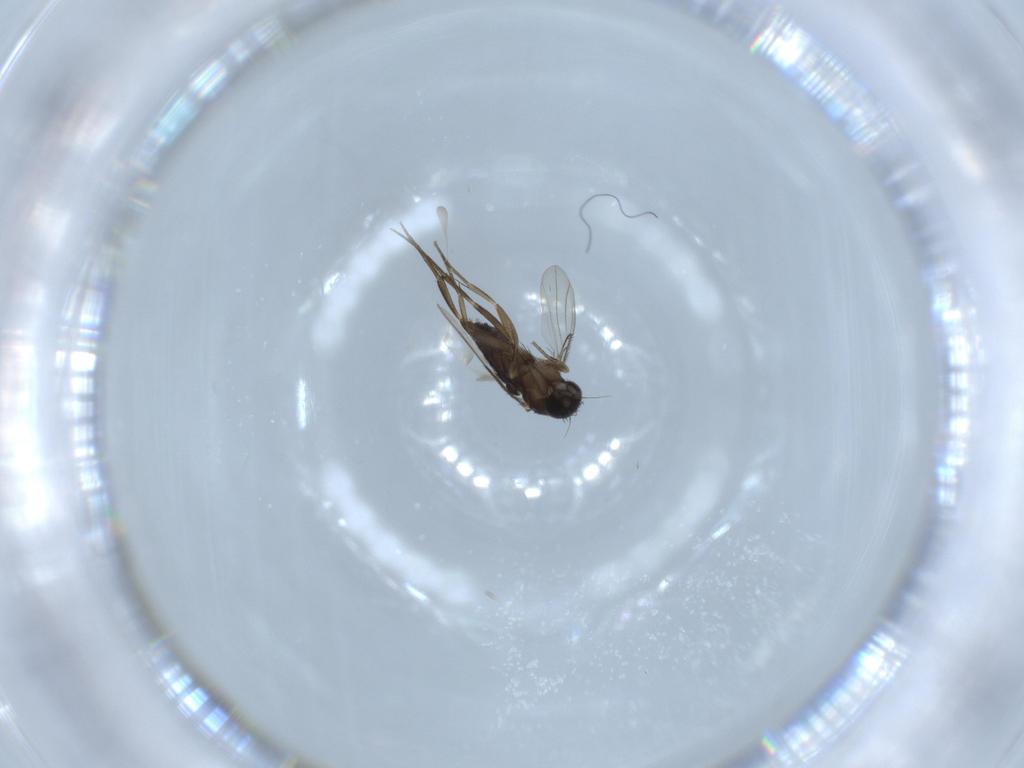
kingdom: Animalia
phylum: Arthropoda
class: Insecta
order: Diptera
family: Phoridae
